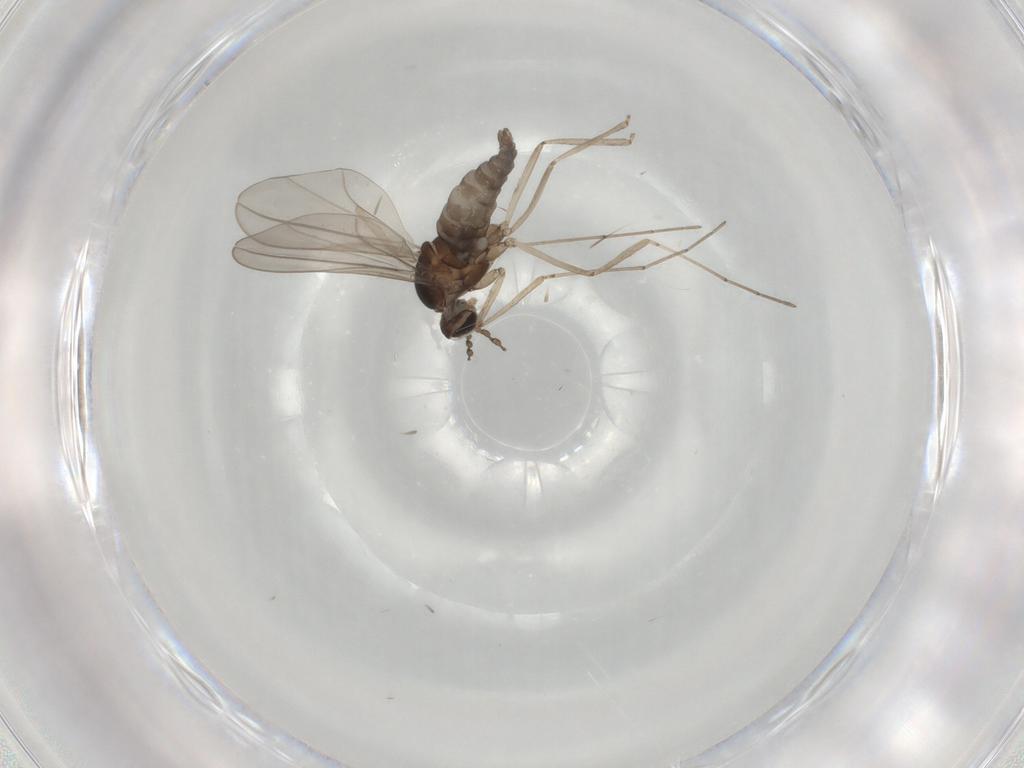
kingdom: Animalia
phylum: Arthropoda
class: Insecta
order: Diptera
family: Cecidomyiidae
